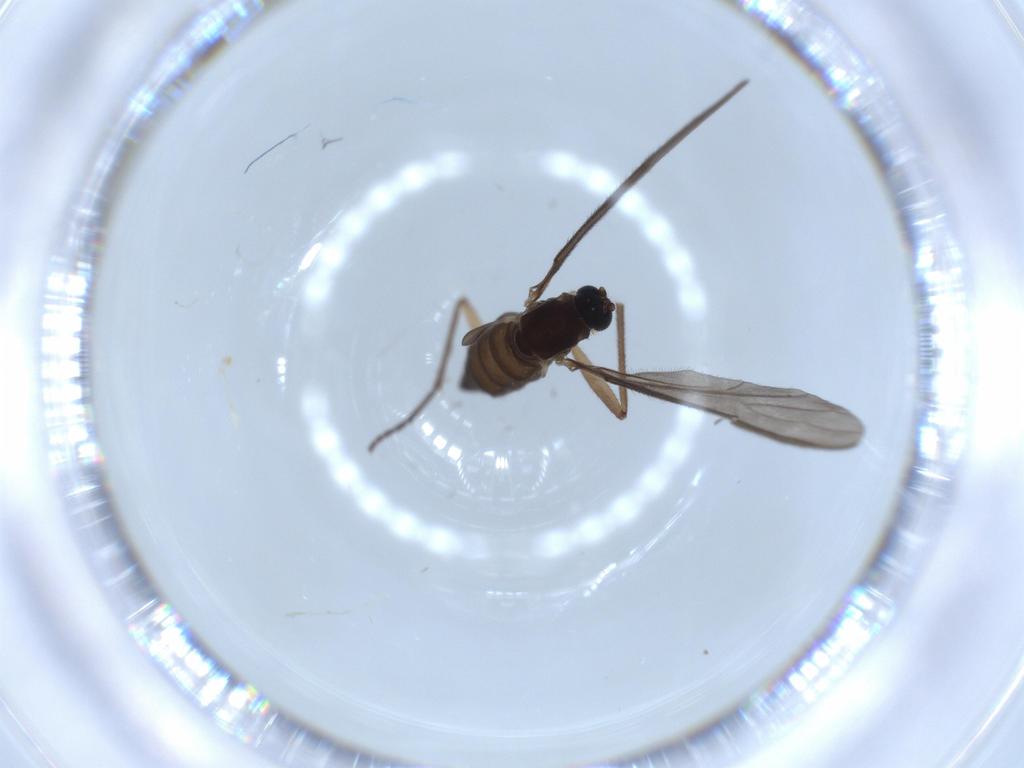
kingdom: Animalia
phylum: Arthropoda
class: Insecta
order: Diptera
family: Sciaridae
